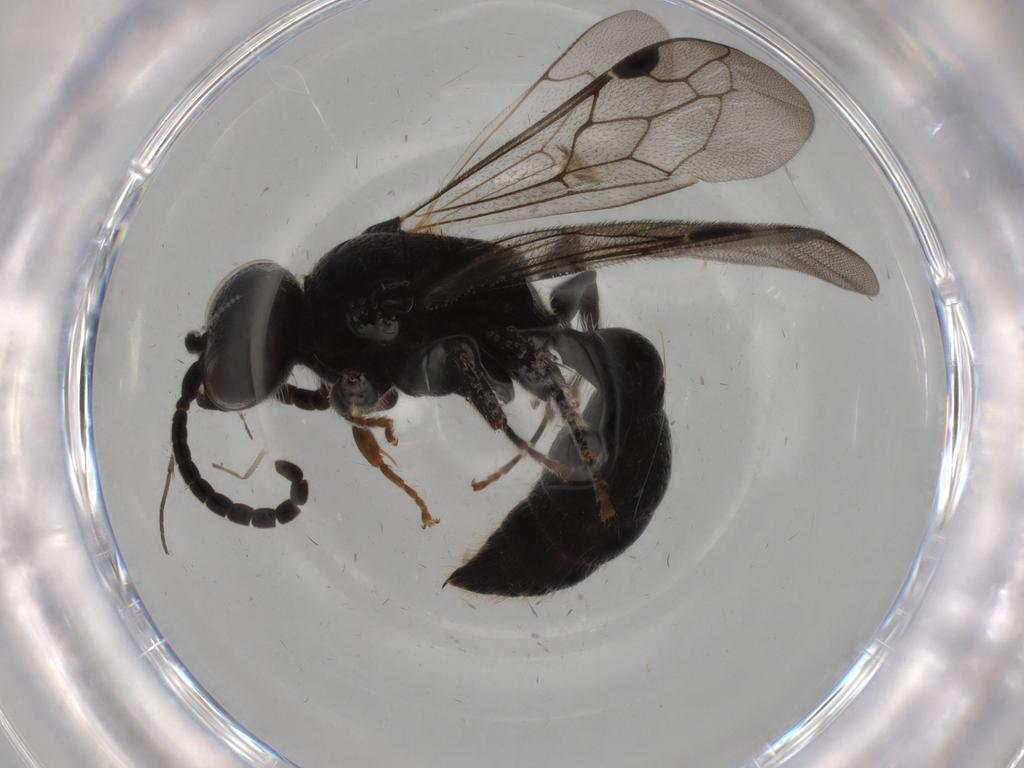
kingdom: Animalia
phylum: Arthropoda
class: Insecta
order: Hymenoptera
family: Tiphiidae
